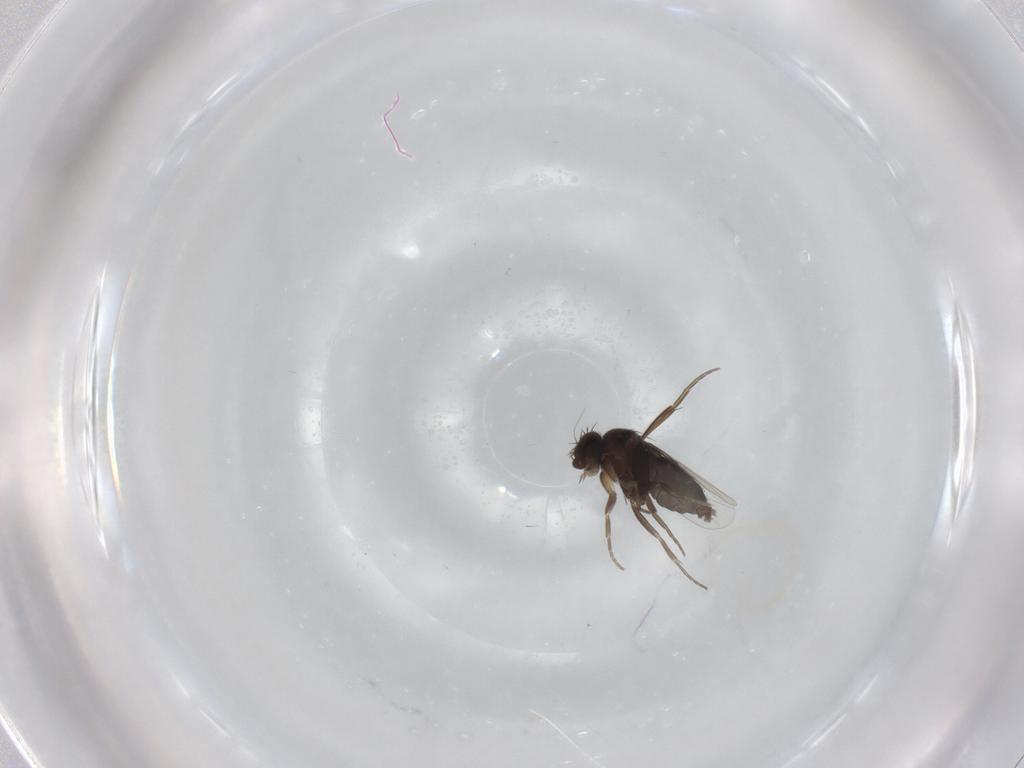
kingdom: Animalia
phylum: Arthropoda
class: Insecta
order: Diptera
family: Phoridae
